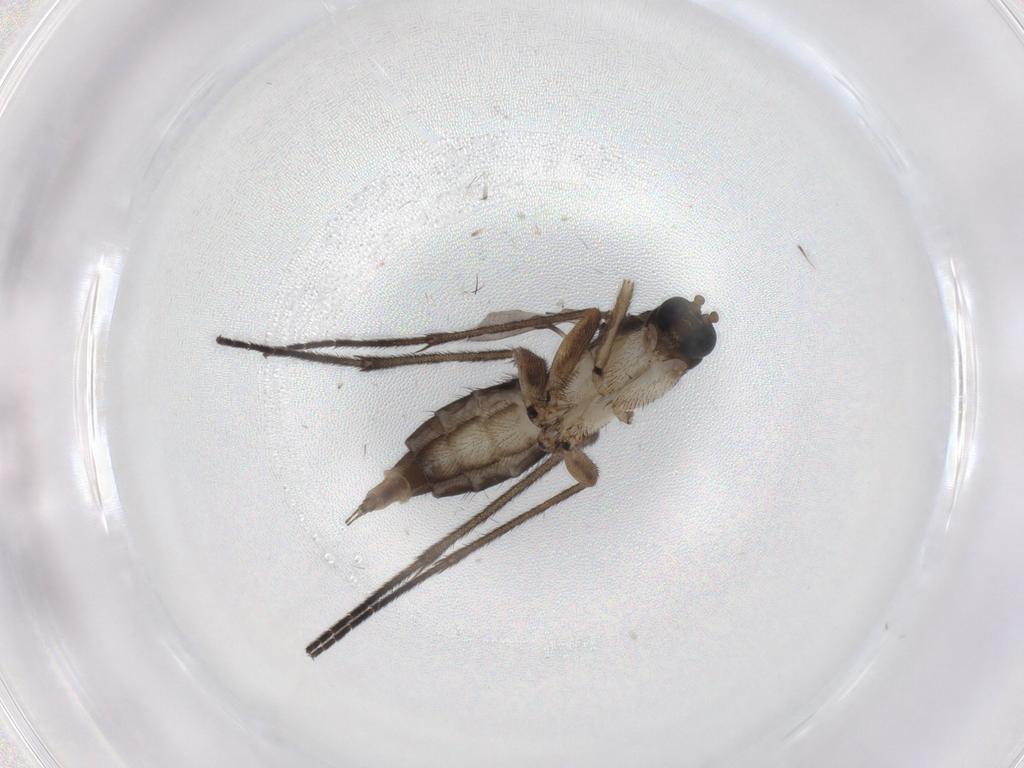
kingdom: Animalia
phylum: Arthropoda
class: Insecta
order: Diptera
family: Sciaridae
